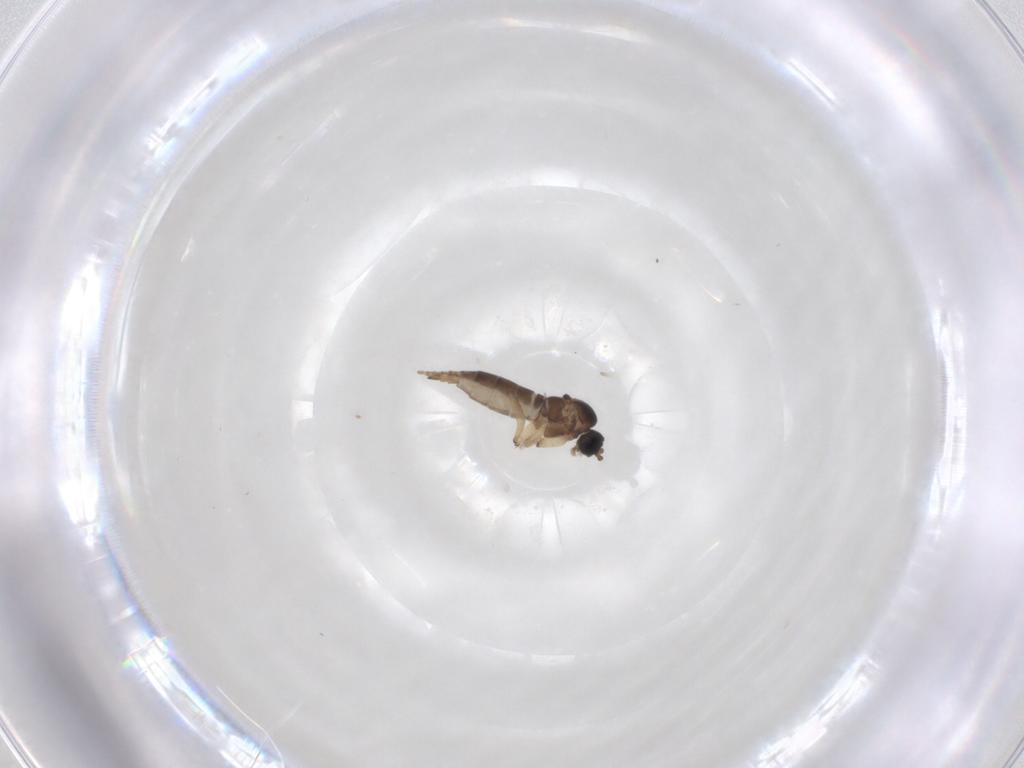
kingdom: Animalia
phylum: Arthropoda
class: Insecta
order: Diptera
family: Sciaridae
